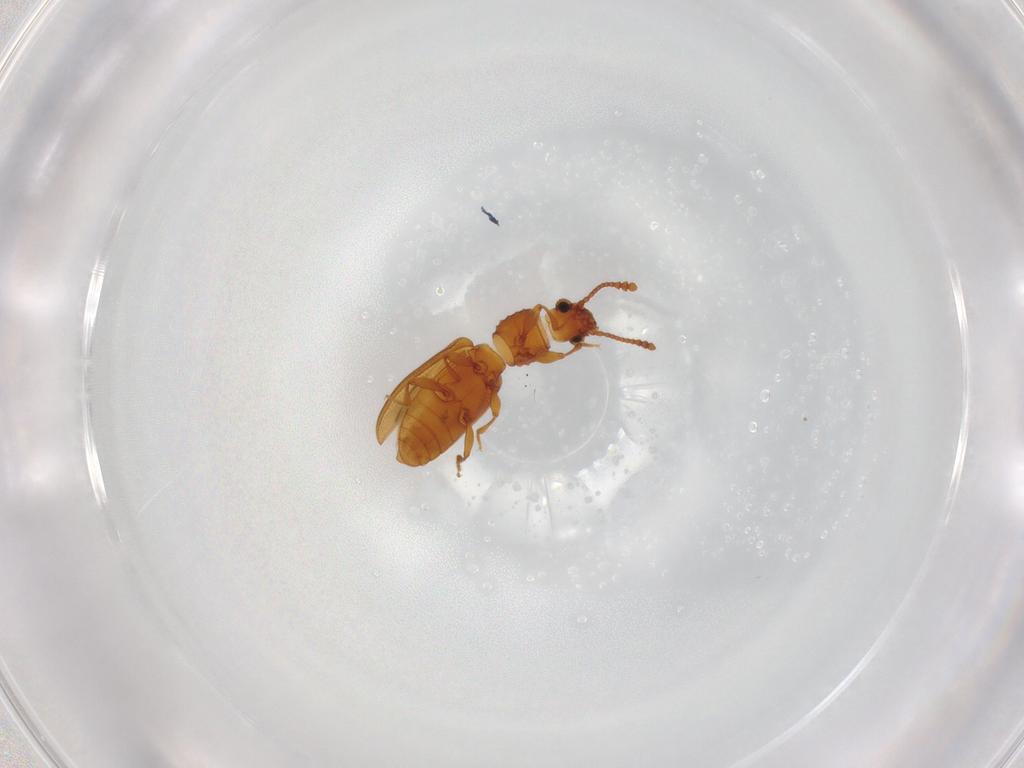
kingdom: Animalia
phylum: Arthropoda
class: Insecta
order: Coleoptera
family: Silvanidae
